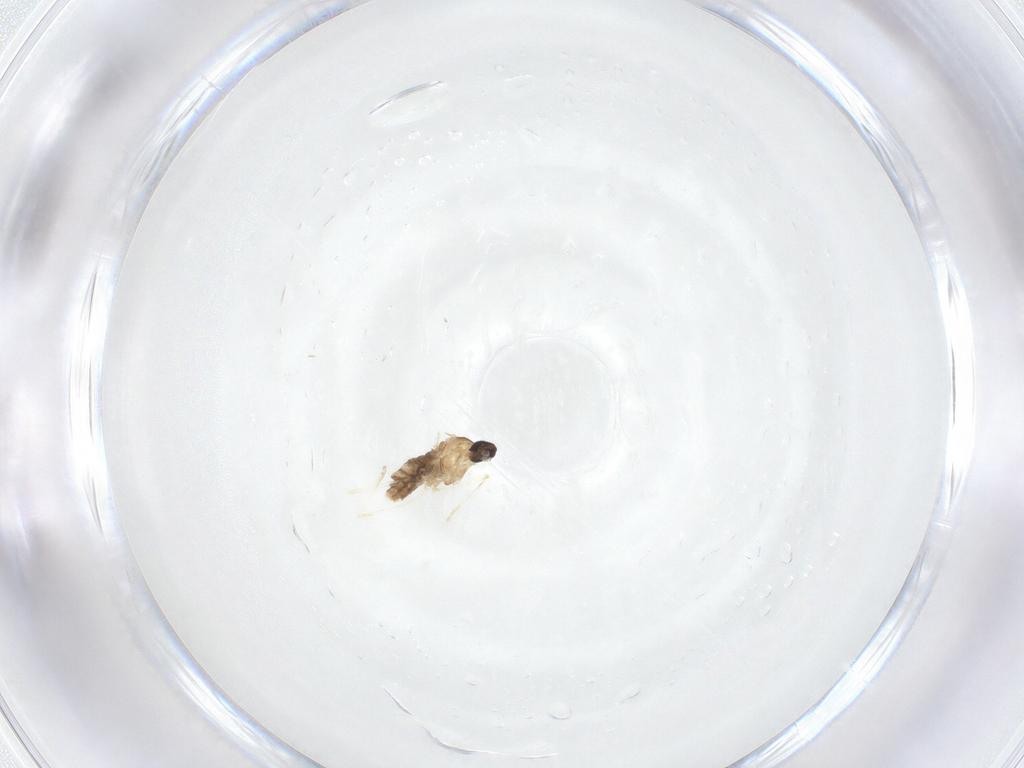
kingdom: Animalia
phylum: Arthropoda
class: Insecta
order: Diptera
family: Cecidomyiidae
